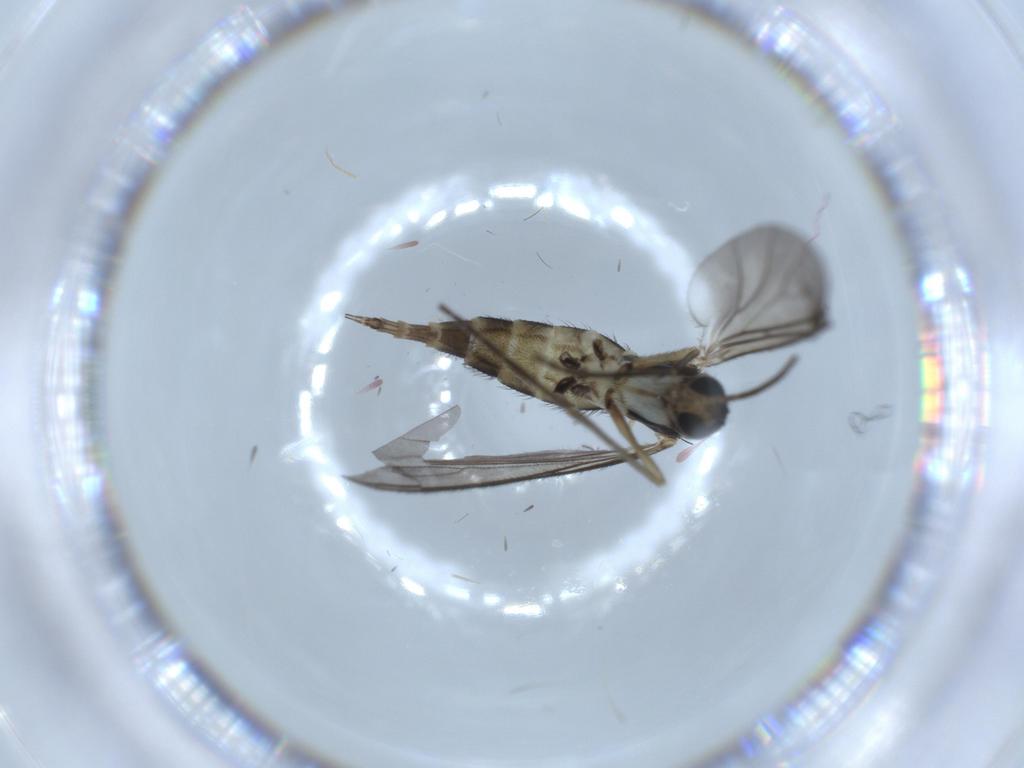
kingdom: Animalia
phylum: Arthropoda
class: Insecta
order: Diptera
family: Sciaridae
